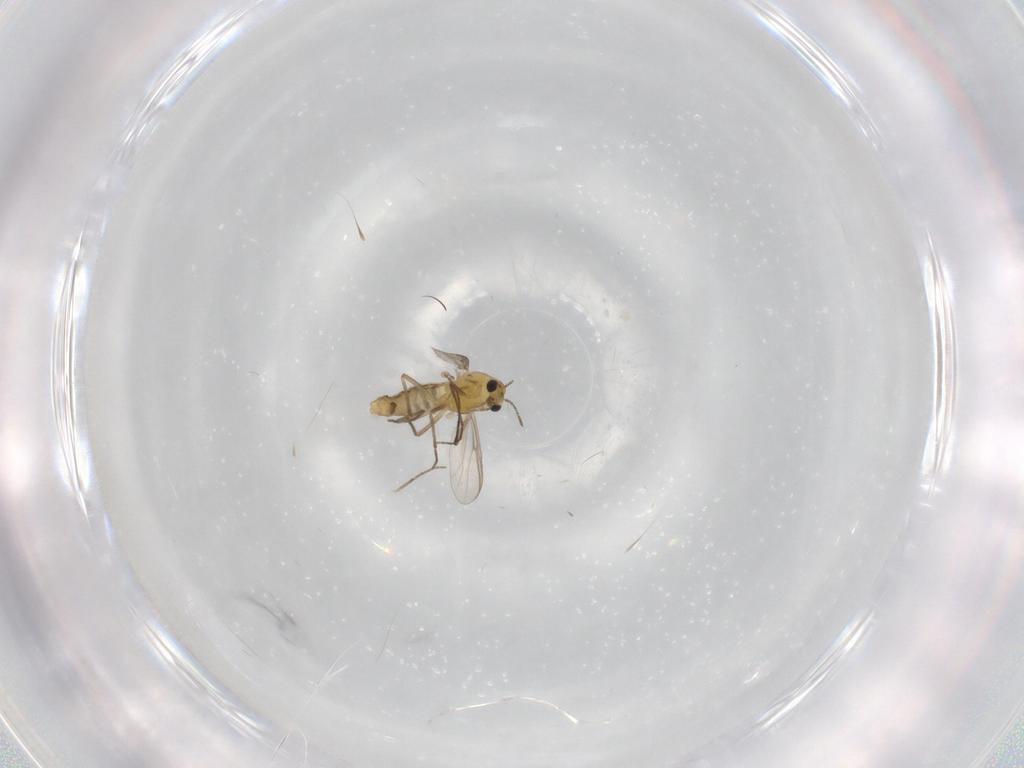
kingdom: Animalia
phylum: Arthropoda
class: Insecta
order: Diptera
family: Chironomidae
